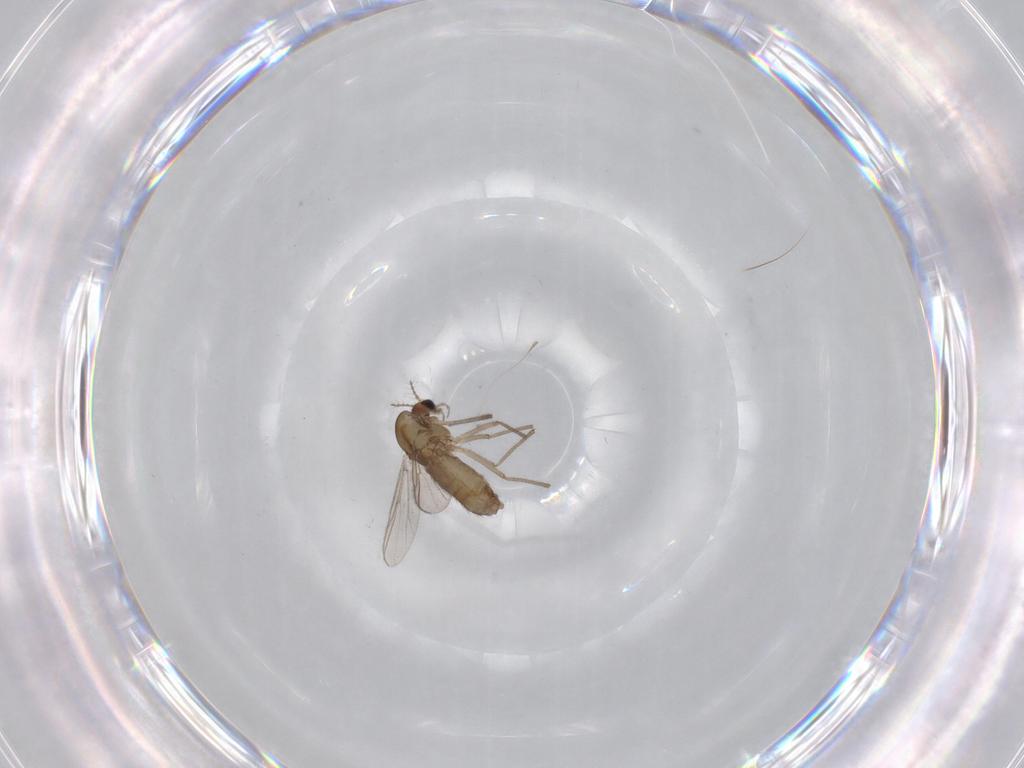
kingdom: Animalia
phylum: Arthropoda
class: Insecta
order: Diptera
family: Chironomidae
